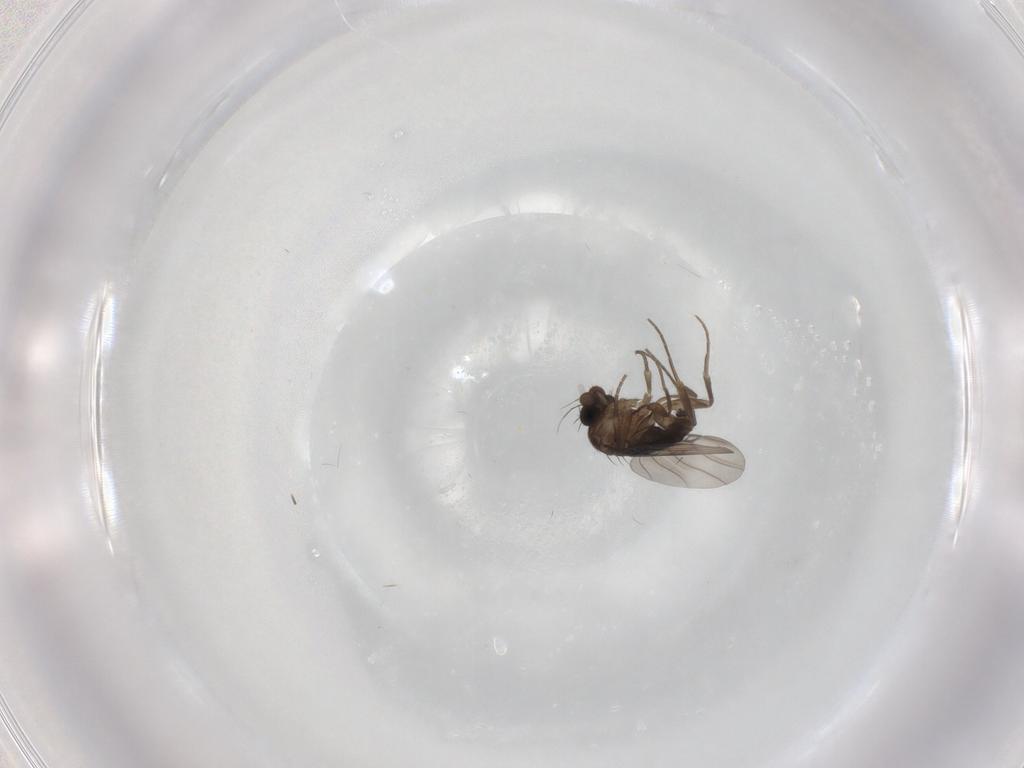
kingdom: Animalia
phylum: Arthropoda
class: Insecta
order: Diptera
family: Phoridae
